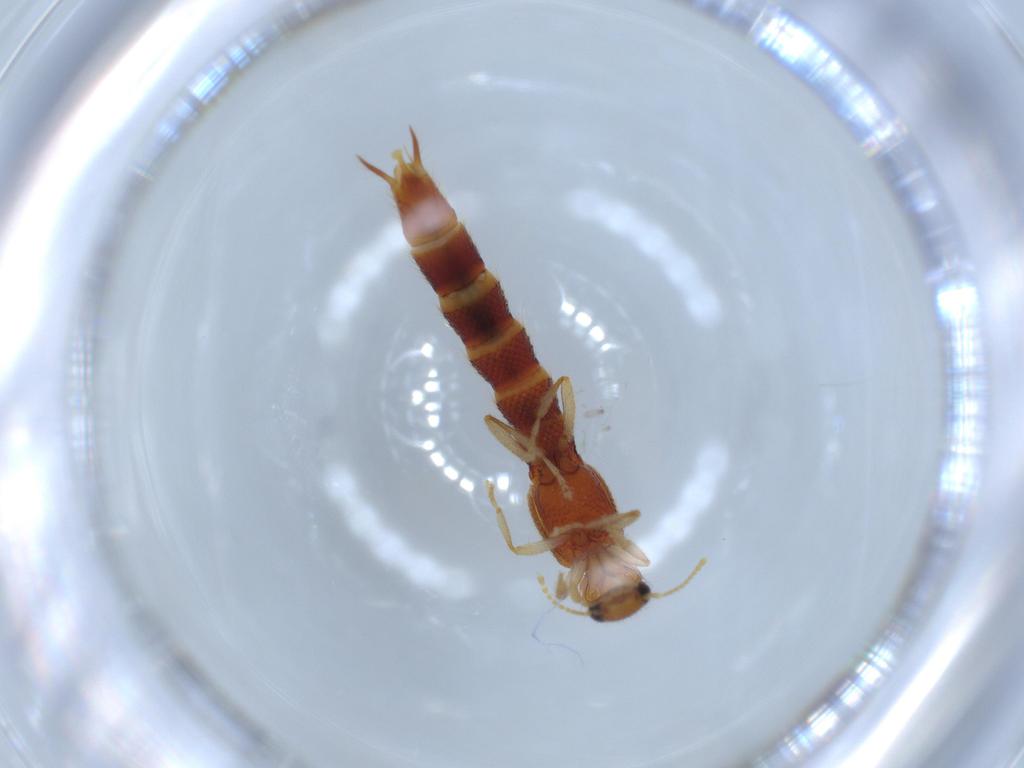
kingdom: Animalia
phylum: Arthropoda
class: Insecta
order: Coleoptera
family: Staphylinidae
